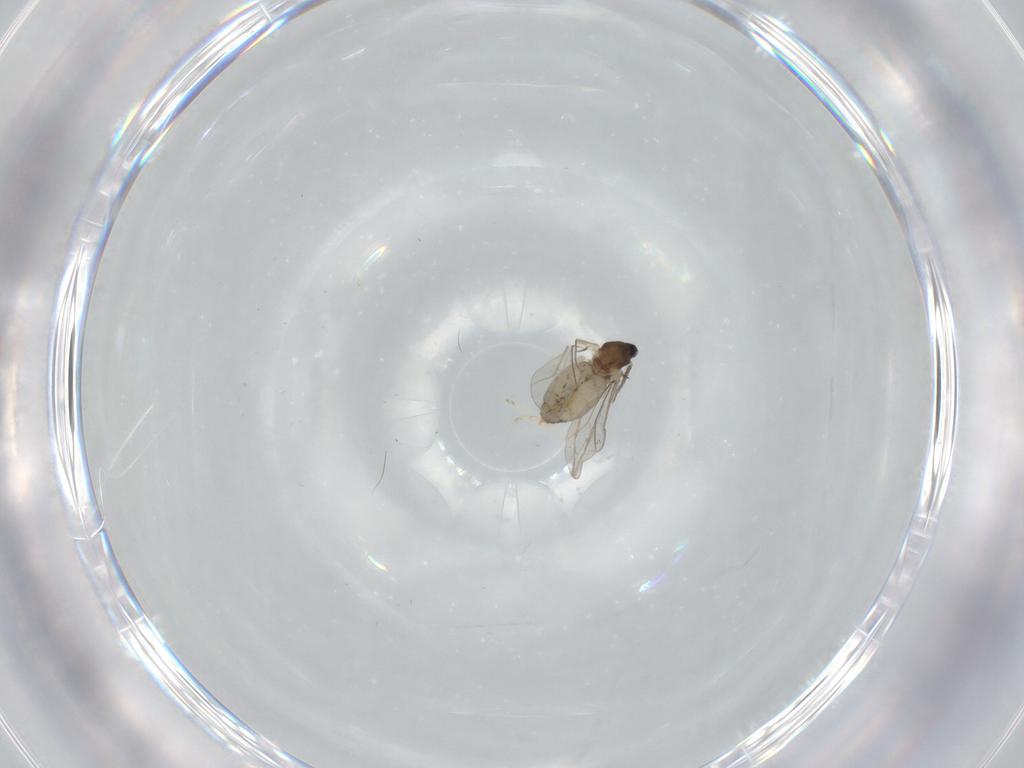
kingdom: Animalia
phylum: Arthropoda
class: Insecta
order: Diptera
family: Cecidomyiidae
